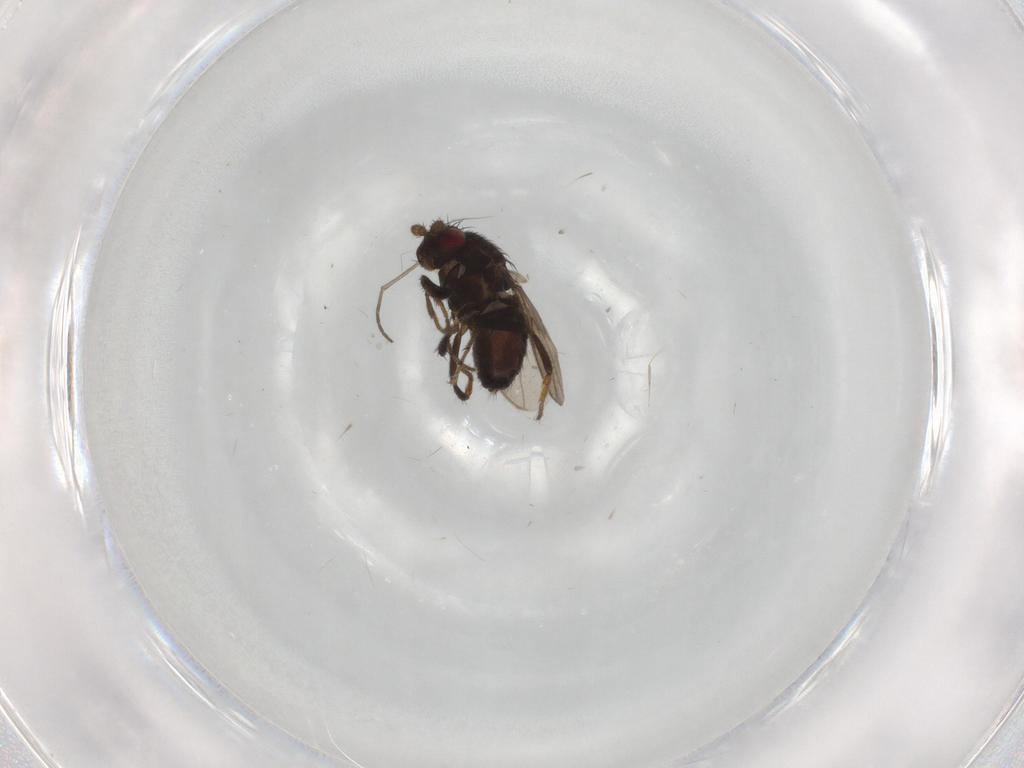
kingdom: Animalia
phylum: Arthropoda
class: Insecta
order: Diptera
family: Sphaeroceridae
